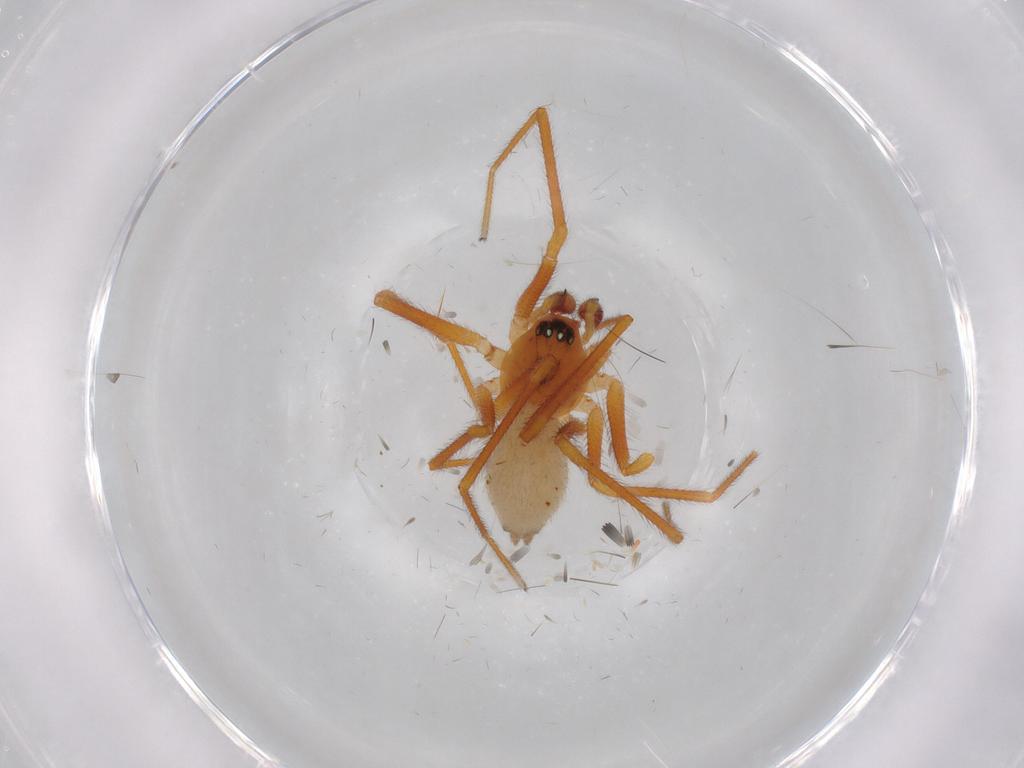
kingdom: Animalia
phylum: Arthropoda
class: Arachnida
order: Araneae
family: Linyphiidae
